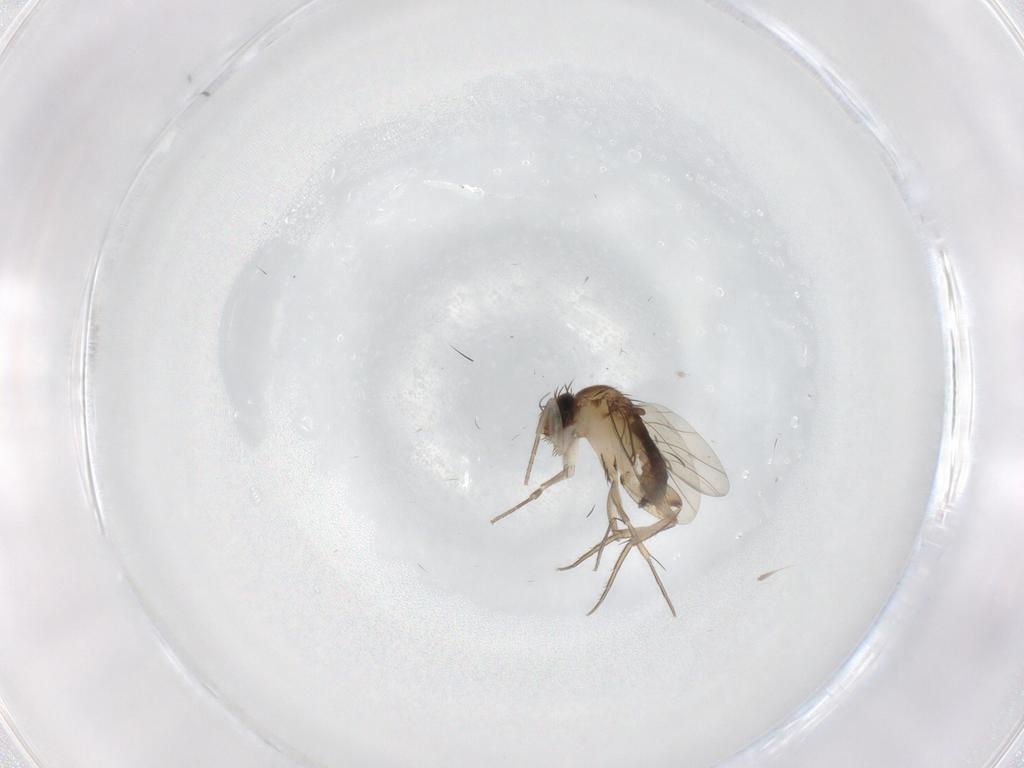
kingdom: Animalia
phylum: Arthropoda
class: Insecta
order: Diptera
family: Phoridae
